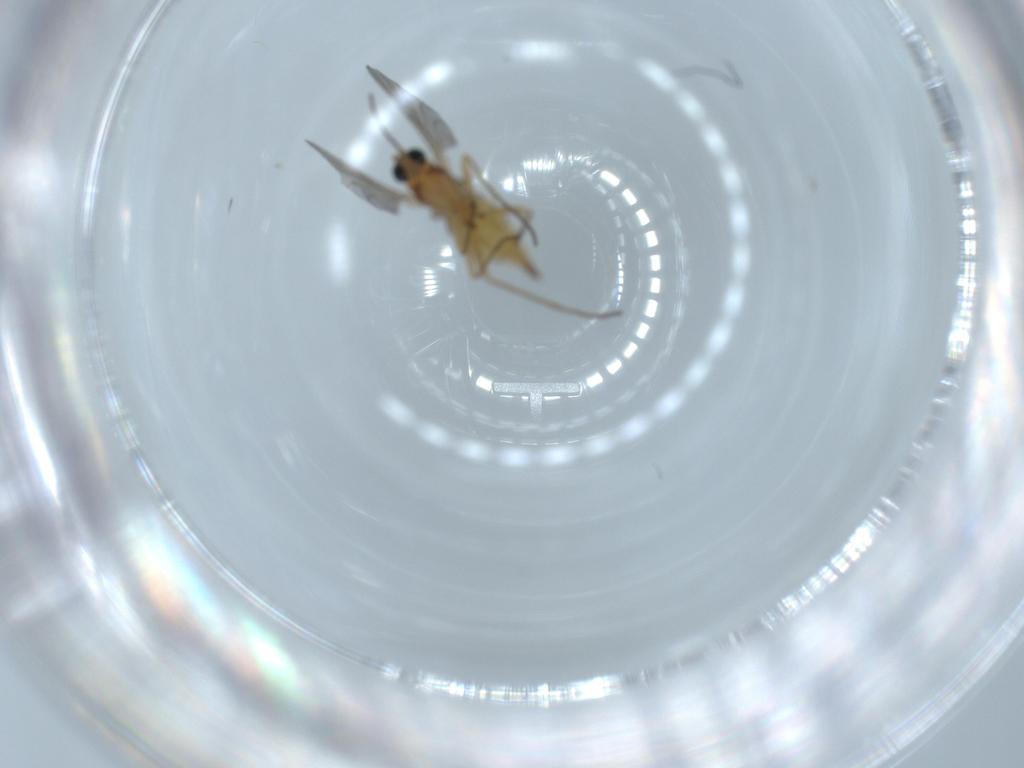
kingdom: Animalia
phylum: Arthropoda
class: Insecta
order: Diptera
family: Sciaridae
